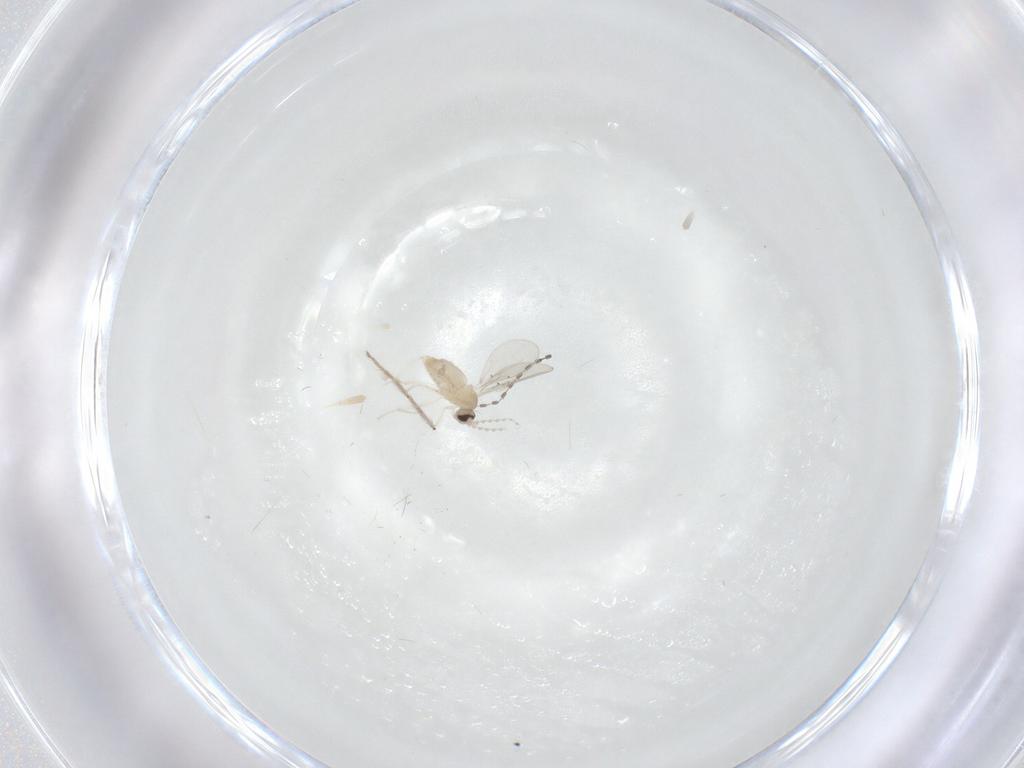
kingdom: Animalia
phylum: Arthropoda
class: Insecta
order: Diptera
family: Cecidomyiidae
